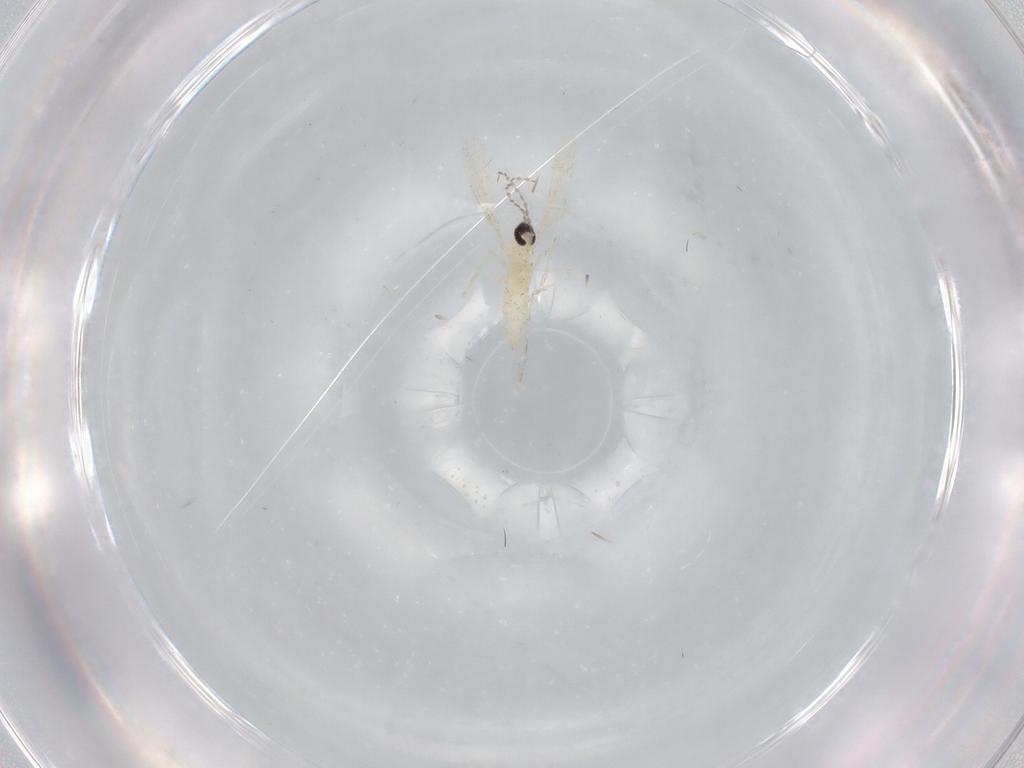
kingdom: Animalia
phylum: Arthropoda
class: Insecta
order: Diptera
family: Cecidomyiidae
